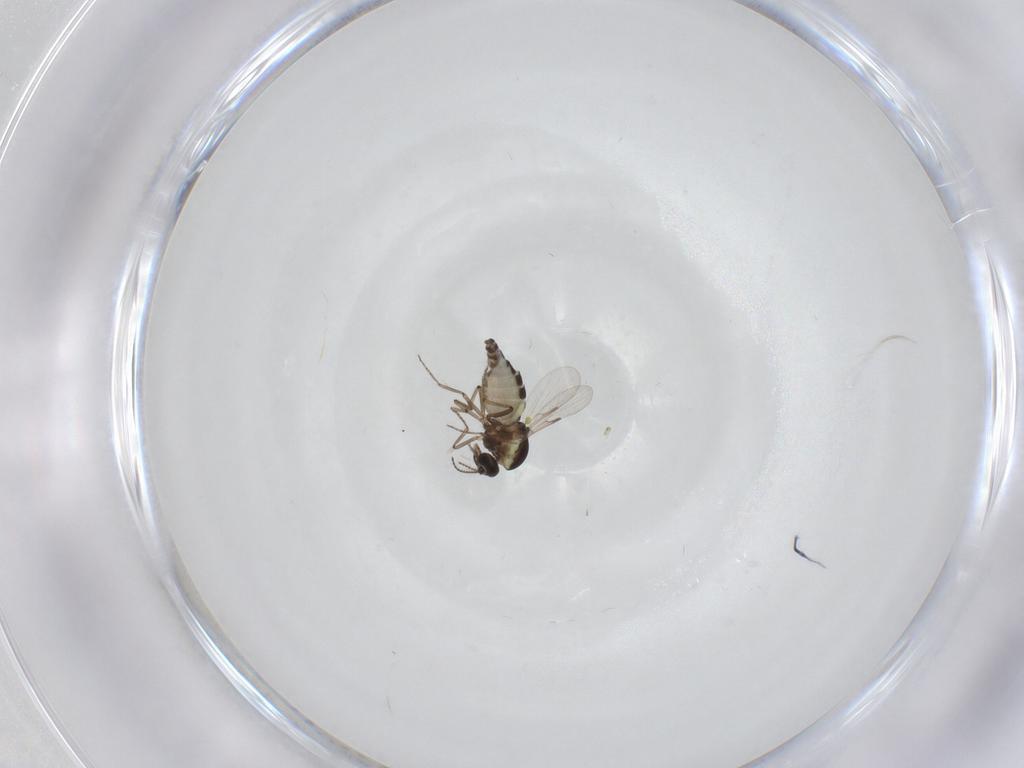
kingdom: Animalia
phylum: Arthropoda
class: Insecta
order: Diptera
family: Ceratopogonidae
